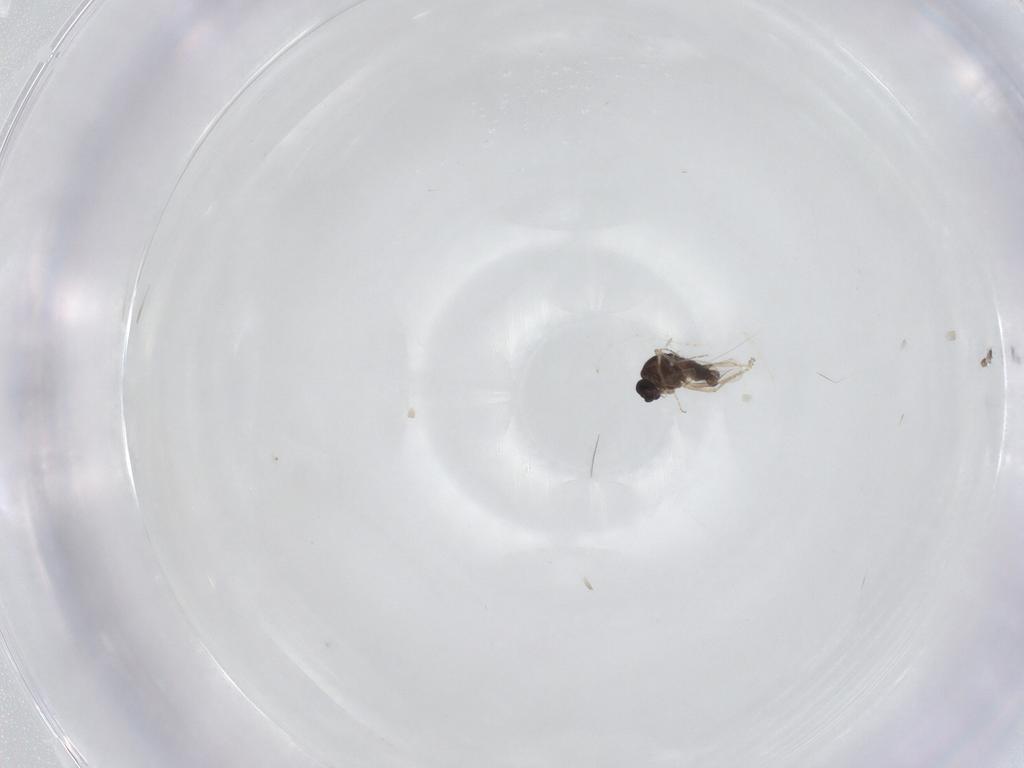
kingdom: Animalia
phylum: Arthropoda
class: Insecta
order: Diptera
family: Ceratopogonidae
